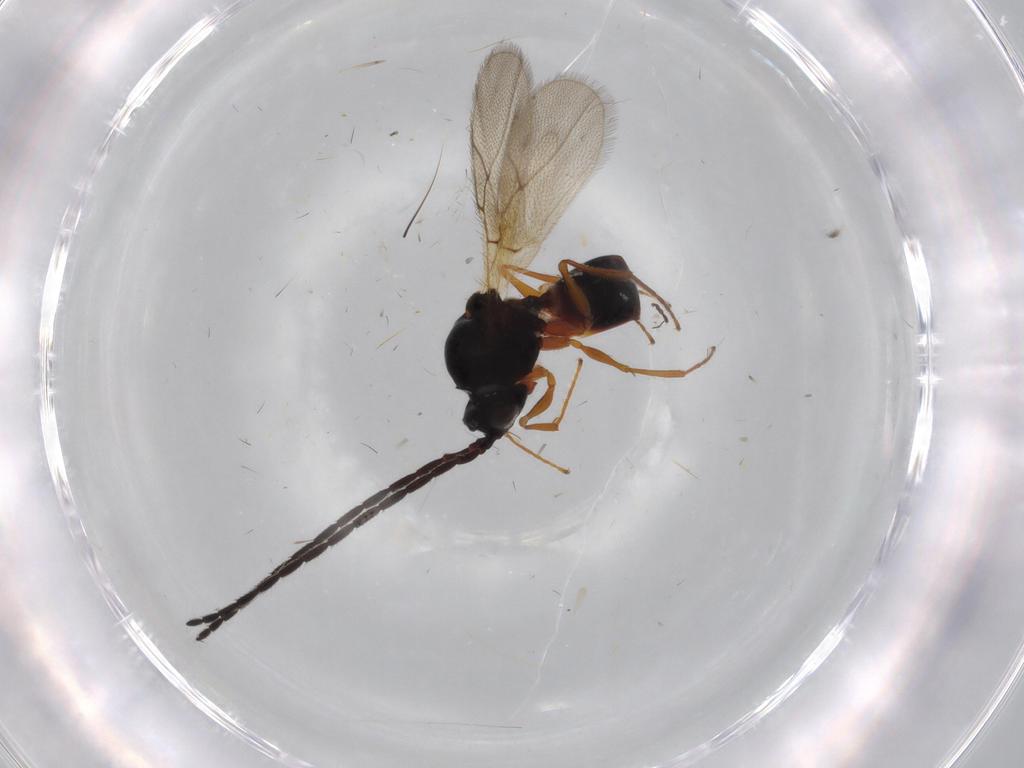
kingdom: Animalia
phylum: Arthropoda
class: Insecta
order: Hymenoptera
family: Figitidae
